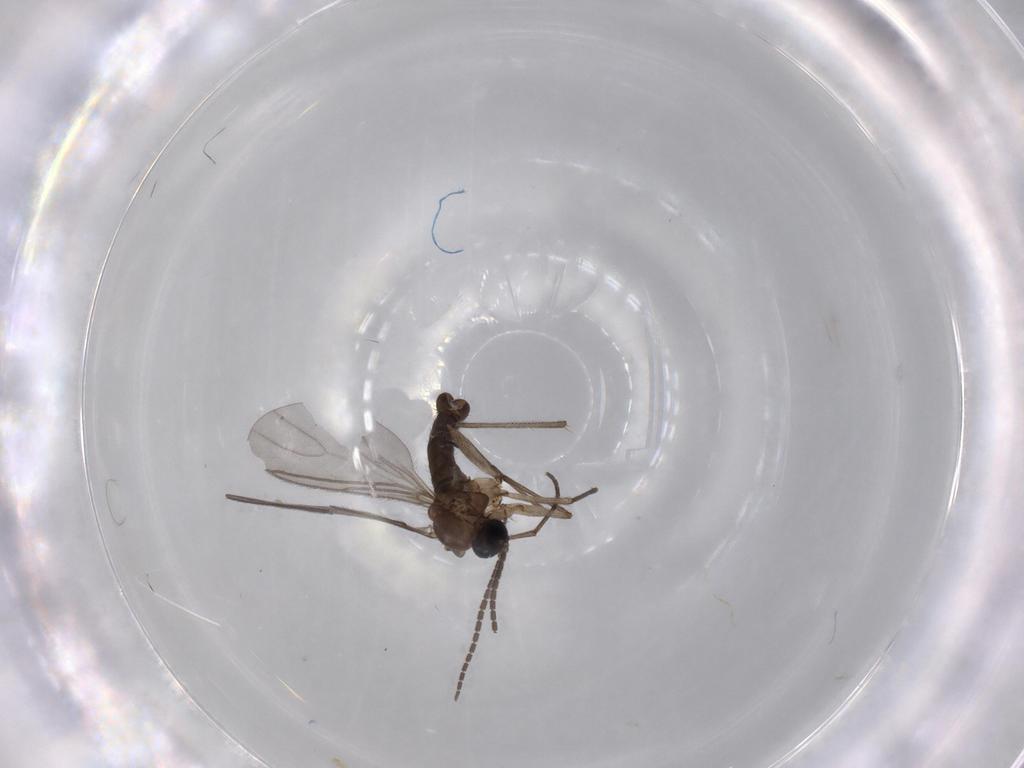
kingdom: Animalia
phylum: Arthropoda
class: Insecta
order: Diptera
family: Sciaridae
